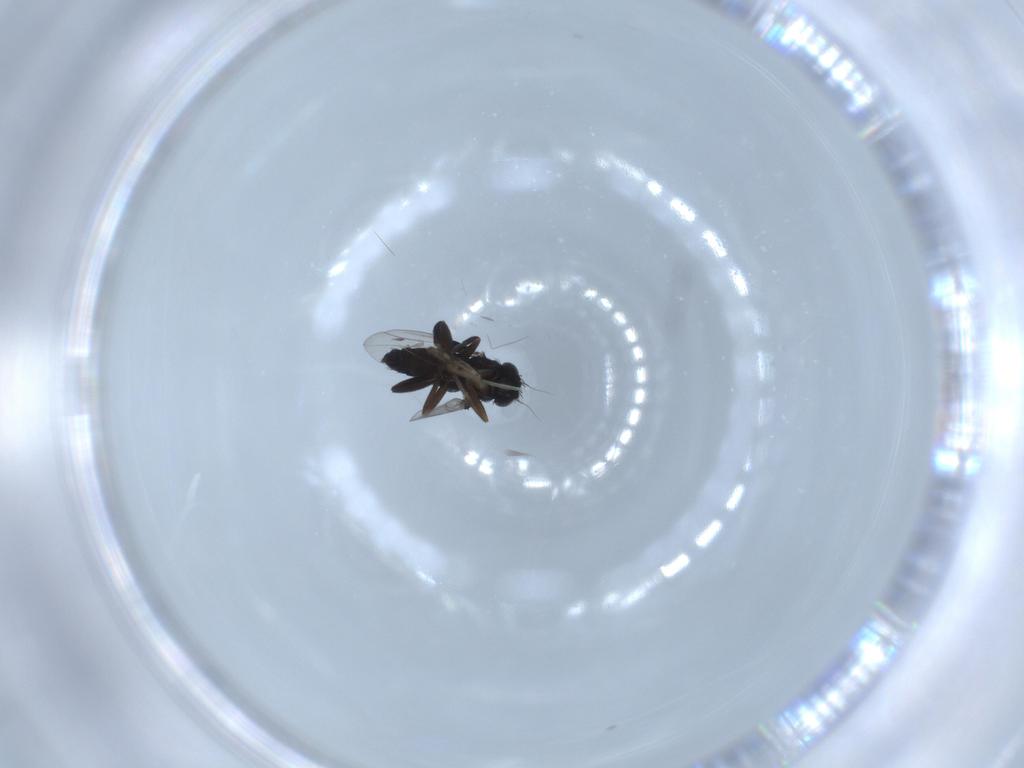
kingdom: Animalia
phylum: Arthropoda
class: Insecta
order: Diptera
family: Phoridae
